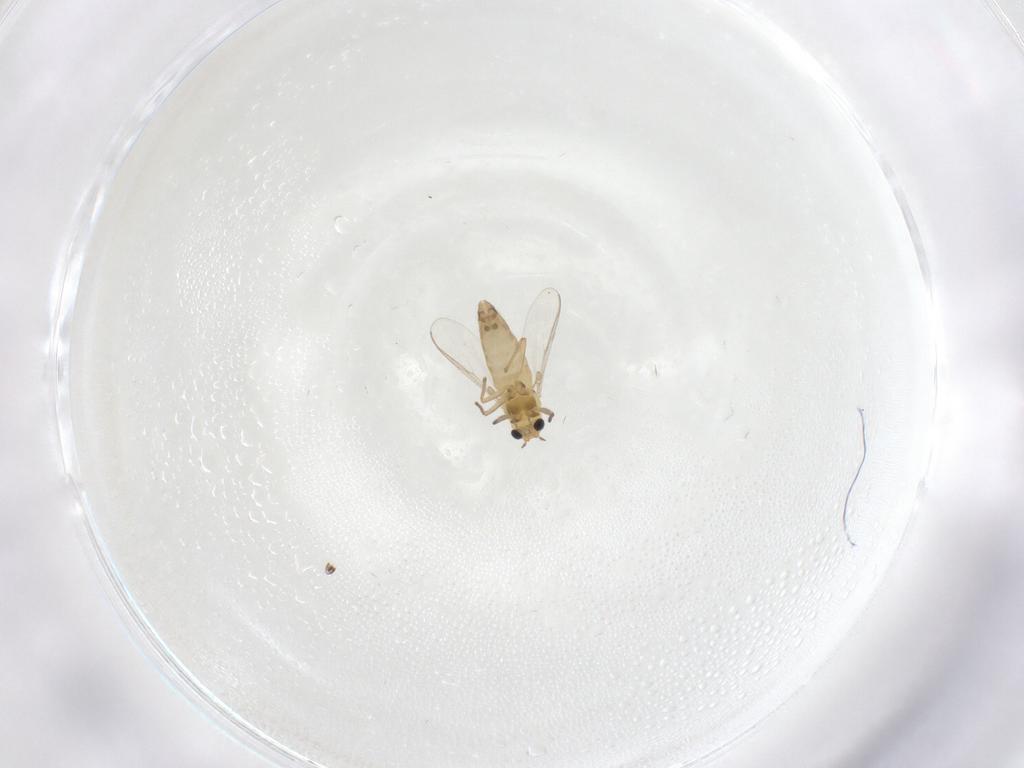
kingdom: Animalia
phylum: Arthropoda
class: Insecta
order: Diptera
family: Chironomidae
